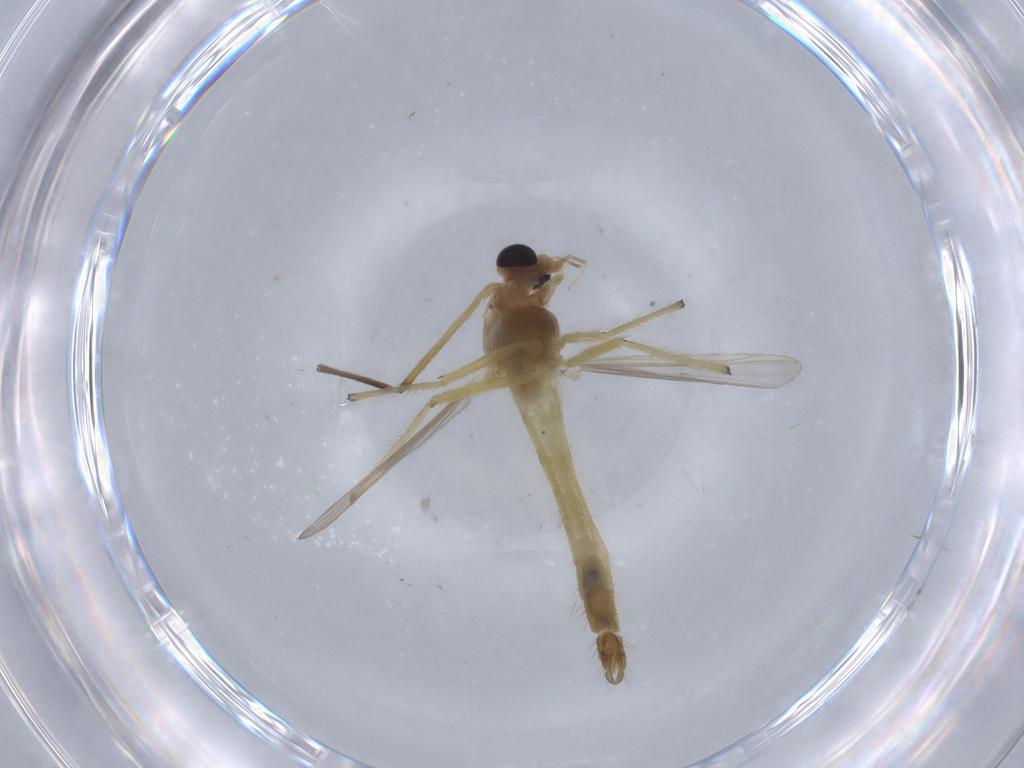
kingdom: Animalia
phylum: Arthropoda
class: Insecta
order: Diptera
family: Chironomidae
